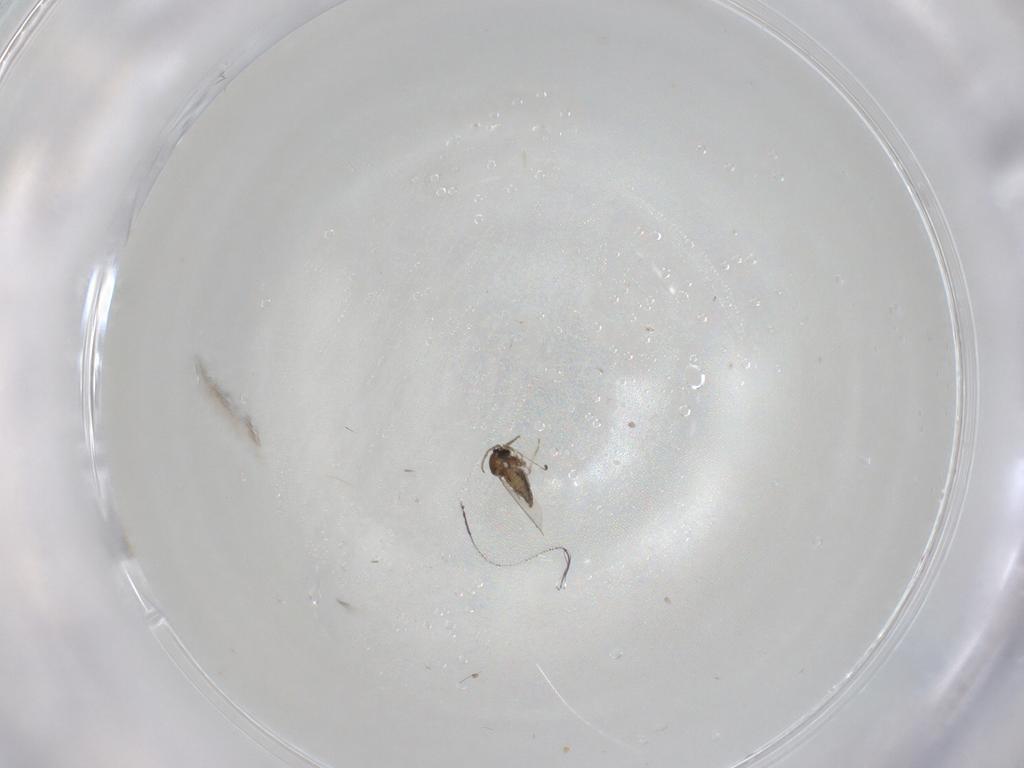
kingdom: Animalia
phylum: Arthropoda
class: Insecta
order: Diptera
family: Cecidomyiidae
